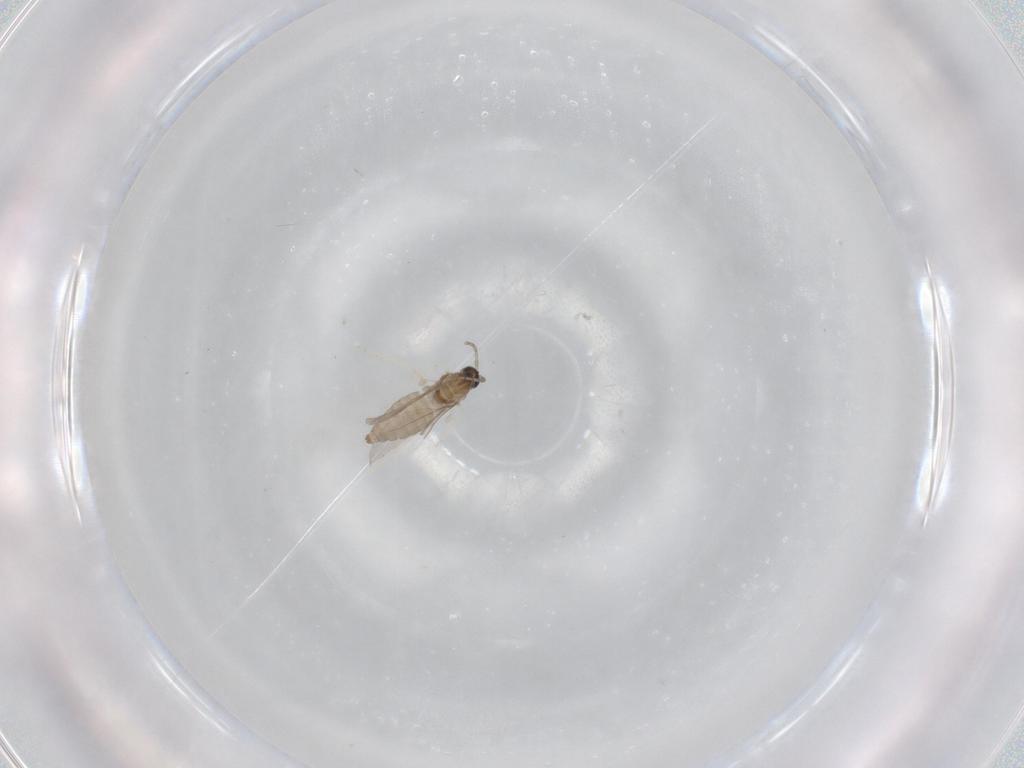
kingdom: Animalia
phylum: Arthropoda
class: Insecta
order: Diptera
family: Cecidomyiidae
